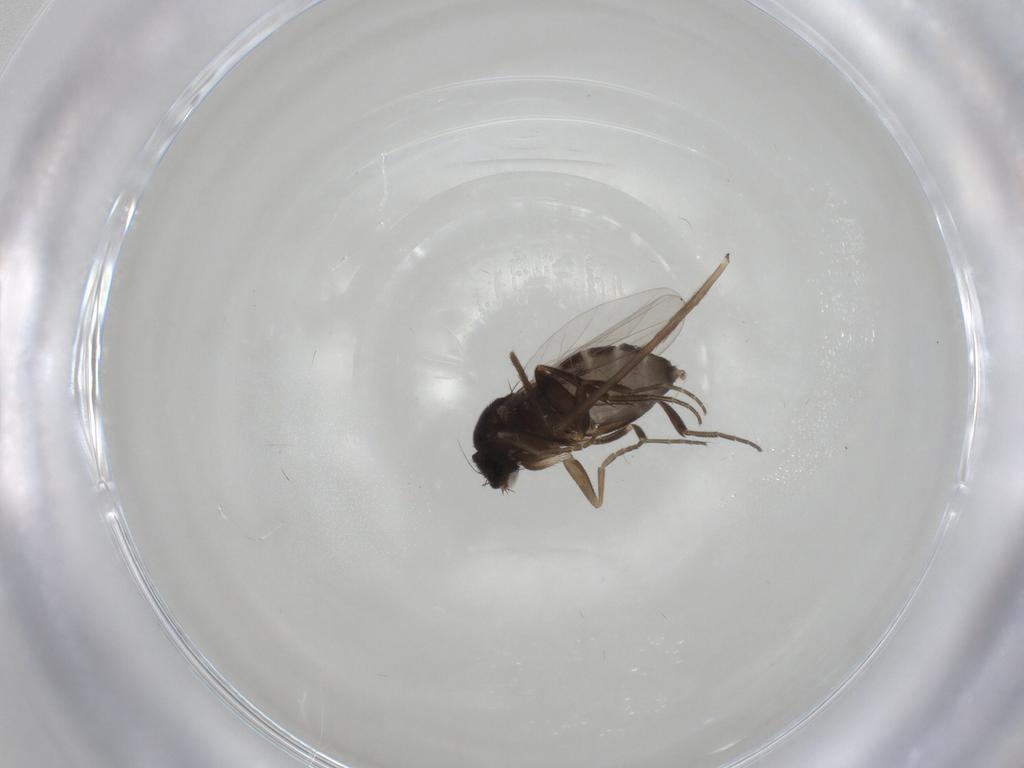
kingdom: Animalia
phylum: Arthropoda
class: Insecta
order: Diptera
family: Phoridae
